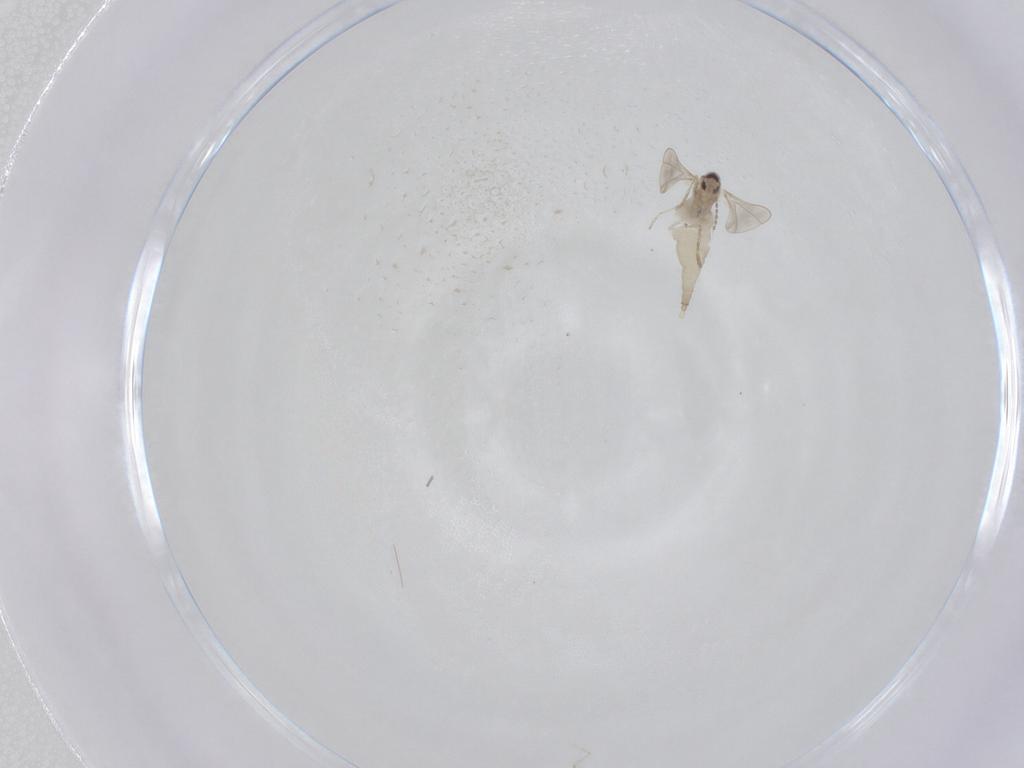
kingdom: Animalia
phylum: Arthropoda
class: Insecta
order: Diptera
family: Cecidomyiidae
